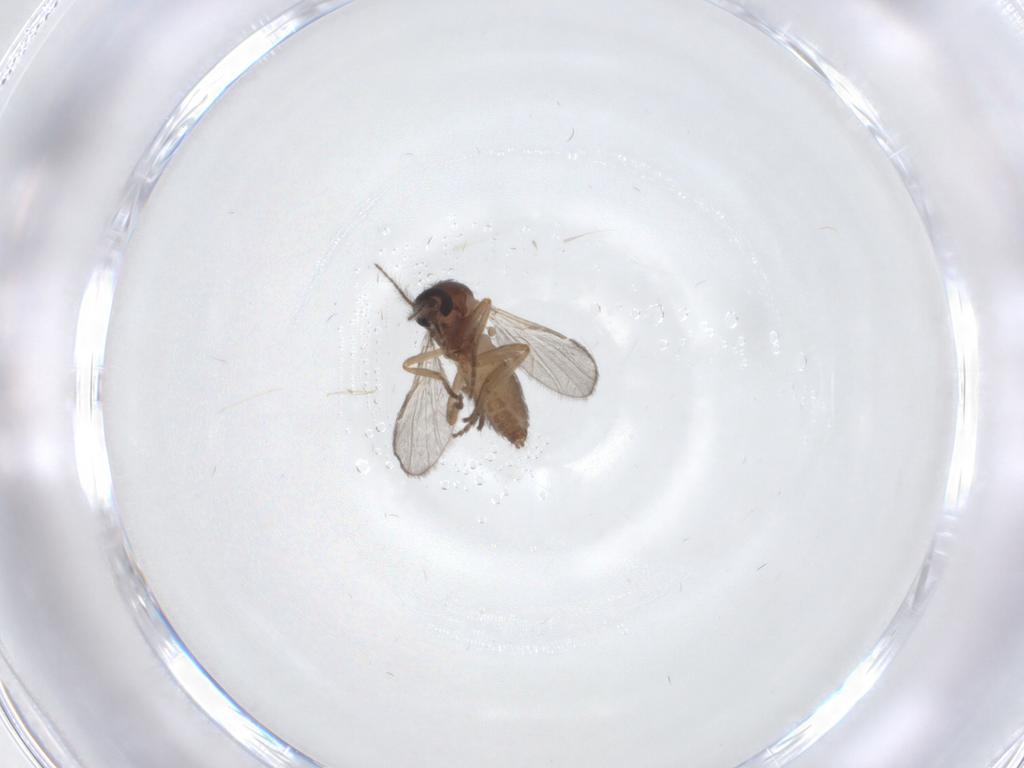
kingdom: Animalia
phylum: Arthropoda
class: Insecta
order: Diptera
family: Ceratopogonidae
